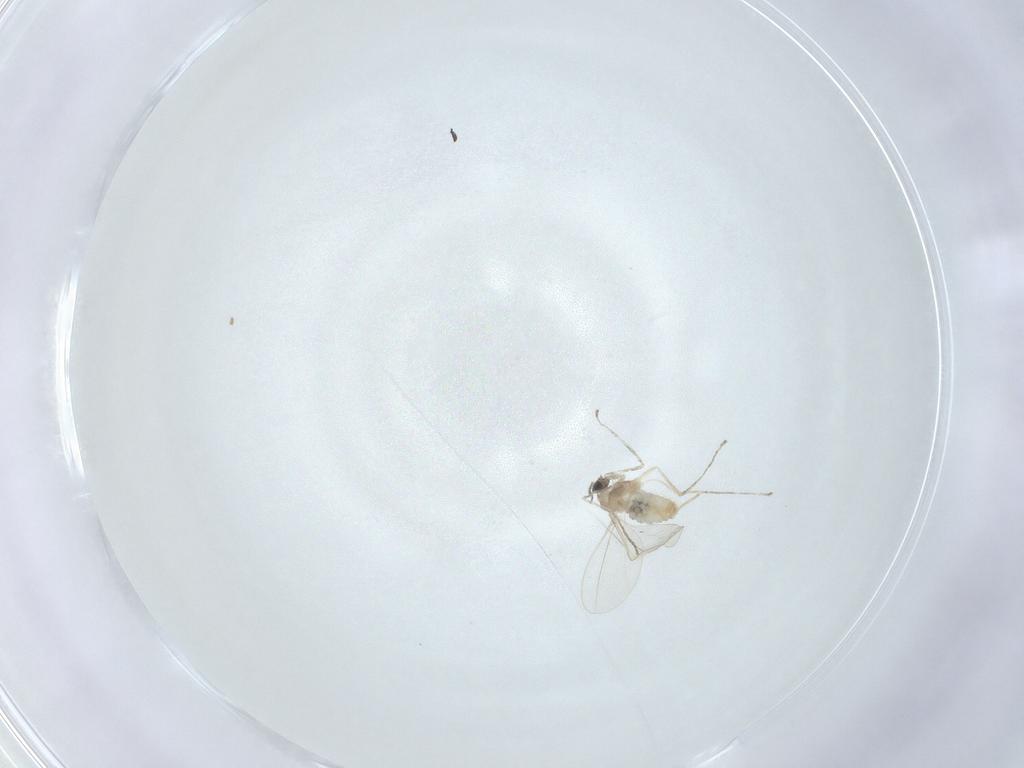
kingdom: Animalia
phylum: Arthropoda
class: Insecta
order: Diptera
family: Cecidomyiidae
